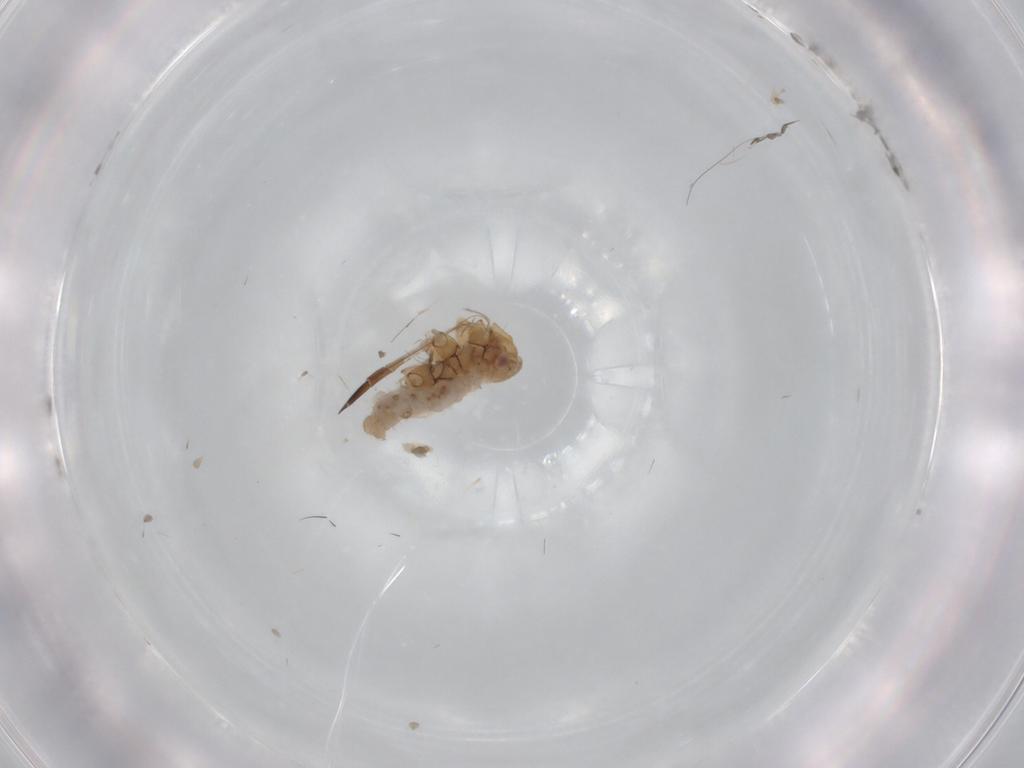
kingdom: Animalia
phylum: Arthropoda
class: Insecta
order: Hemiptera
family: Aphididae
